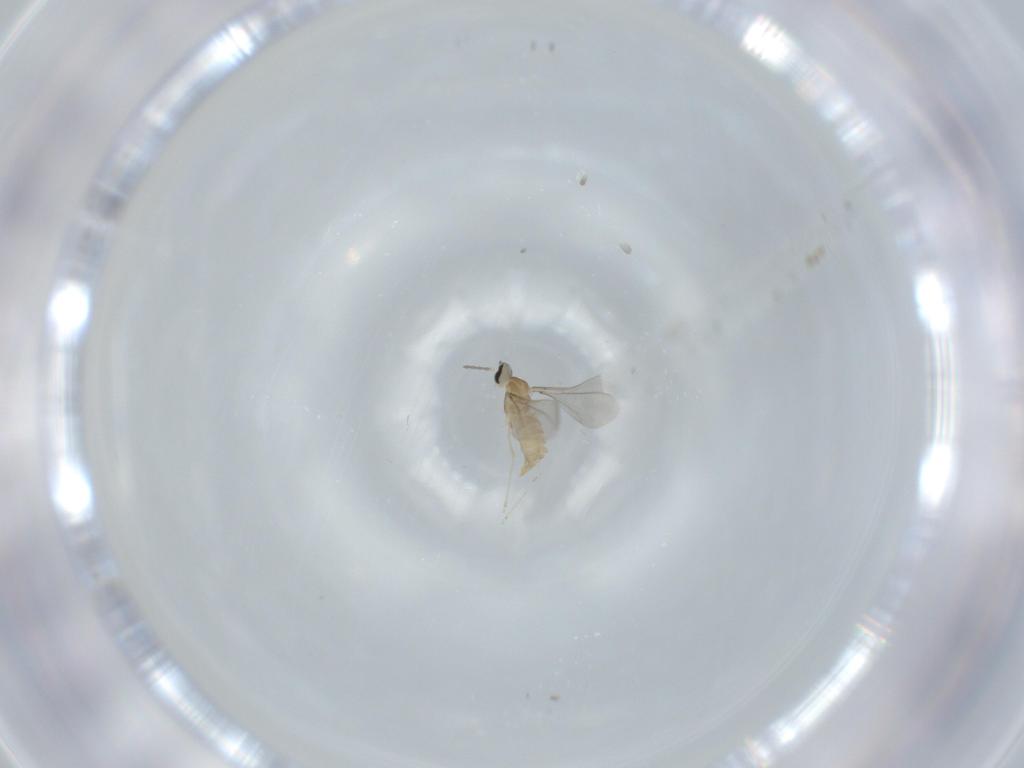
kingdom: Animalia
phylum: Arthropoda
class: Insecta
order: Diptera
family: Cecidomyiidae
